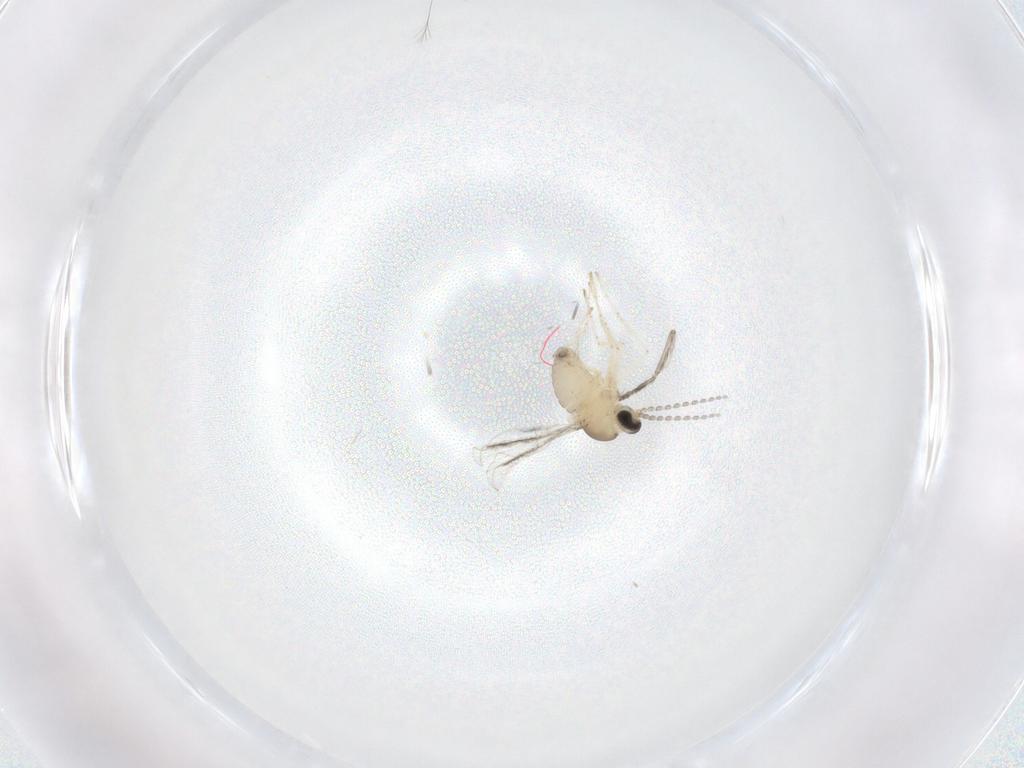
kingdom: Animalia
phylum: Arthropoda
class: Insecta
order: Diptera
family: Cecidomyiidae
